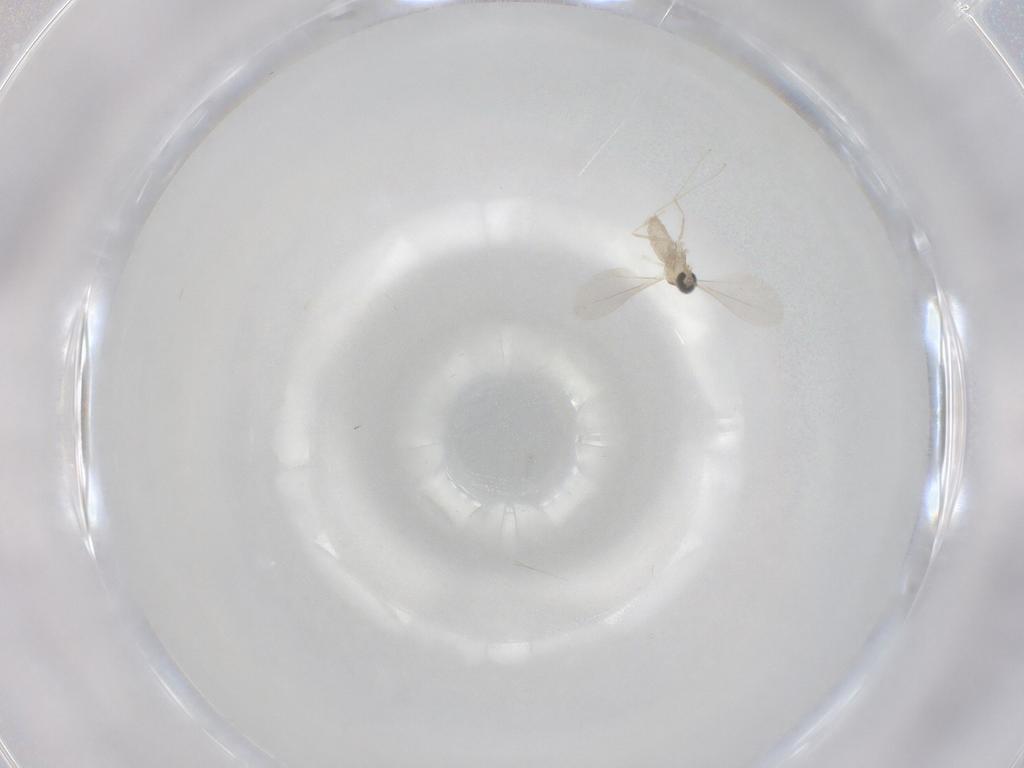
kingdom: Animalia
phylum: Arthropoda
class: Insecta
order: Diptera
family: Cecidomyiidae
